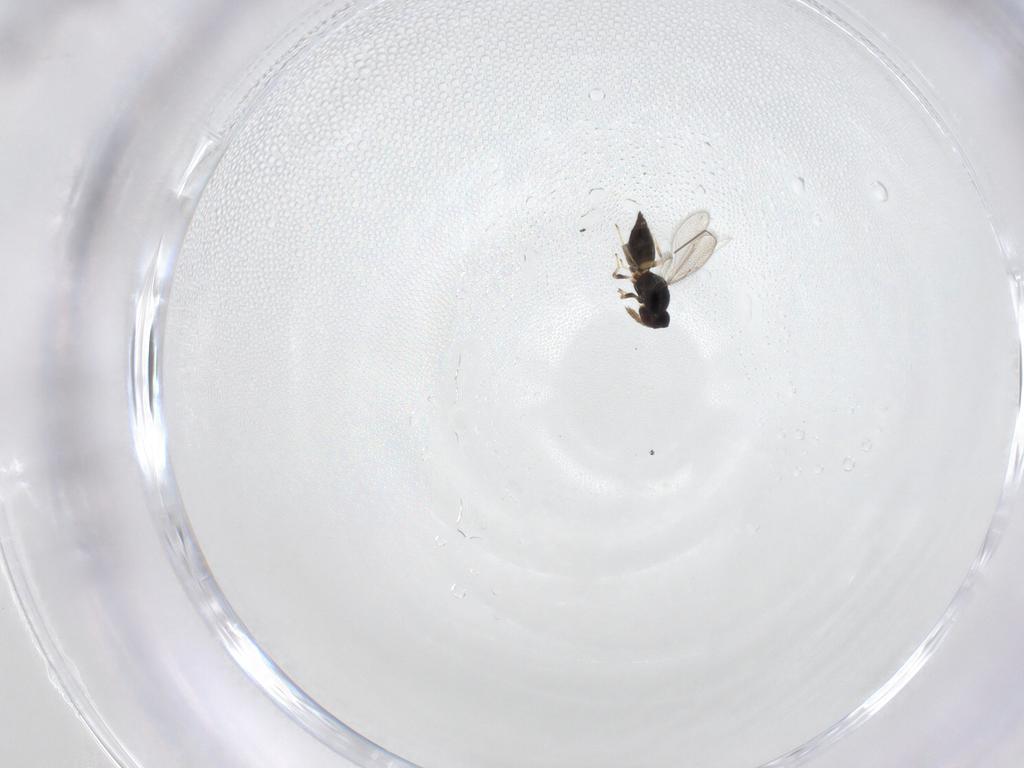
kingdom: Animalia
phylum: Arthropoda
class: Insecta
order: Hymenoptera
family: Eulophidae
